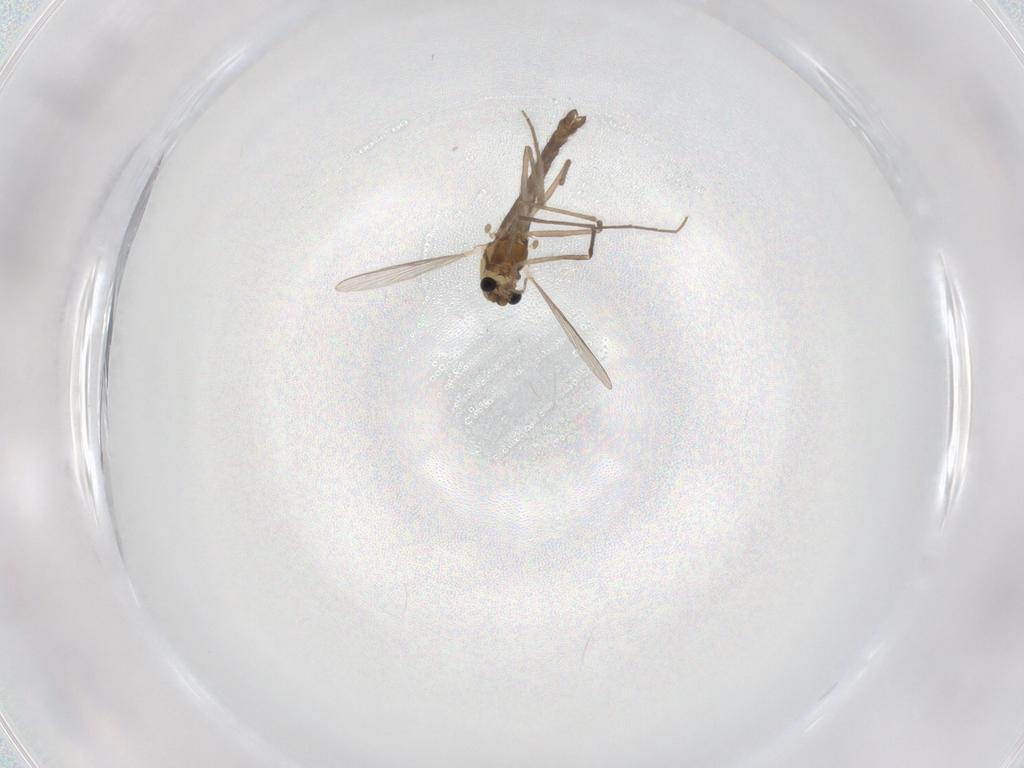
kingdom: Animalia
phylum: Arthropoda
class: Insecta
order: Diptera
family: Chironomidae
